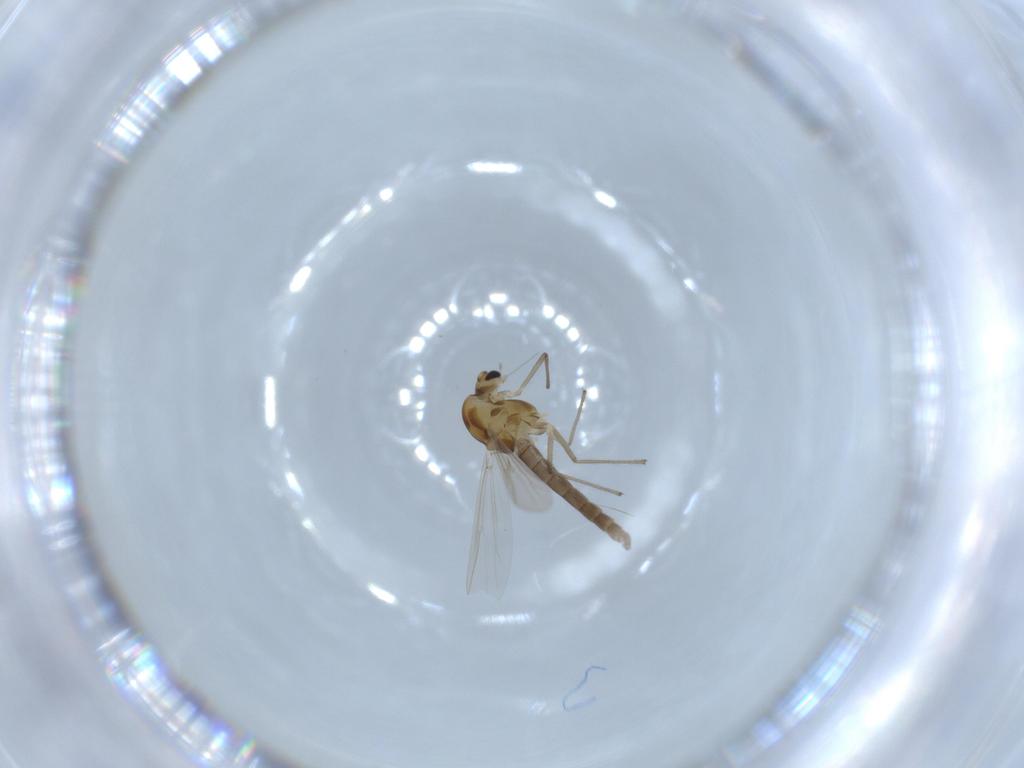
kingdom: Animalia
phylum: Arthropoda
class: Insecta
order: Diptera
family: Chironomidae
